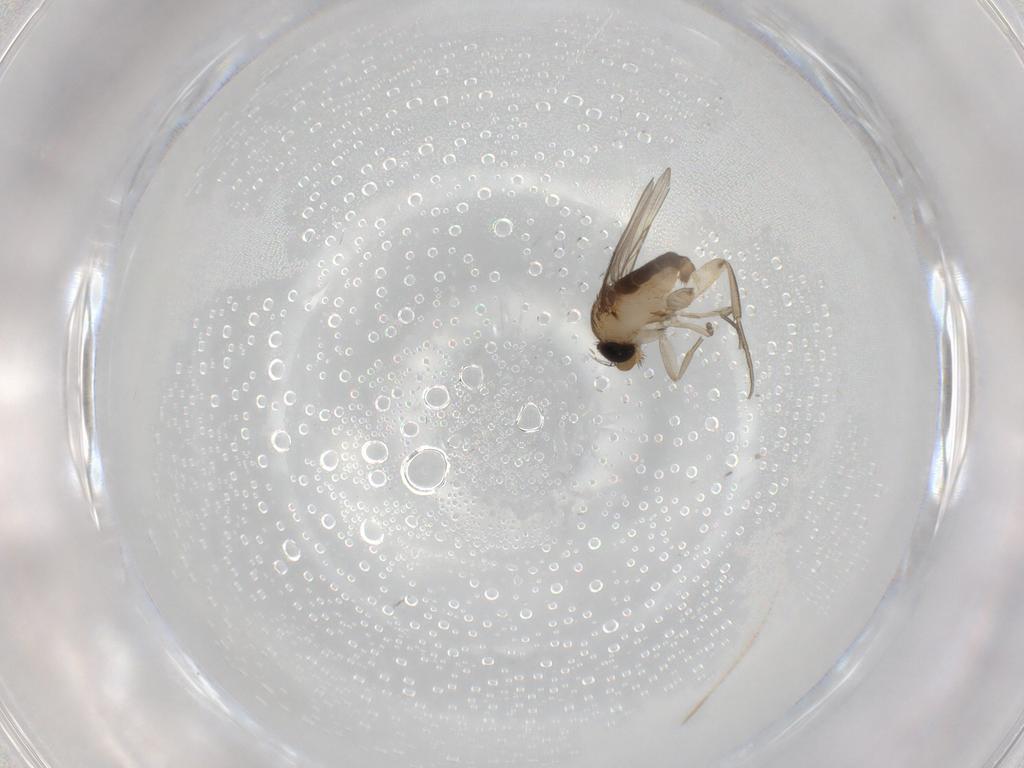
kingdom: Animalia
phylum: Arthropoda
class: Insecta
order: Diptera
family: Phoridae
